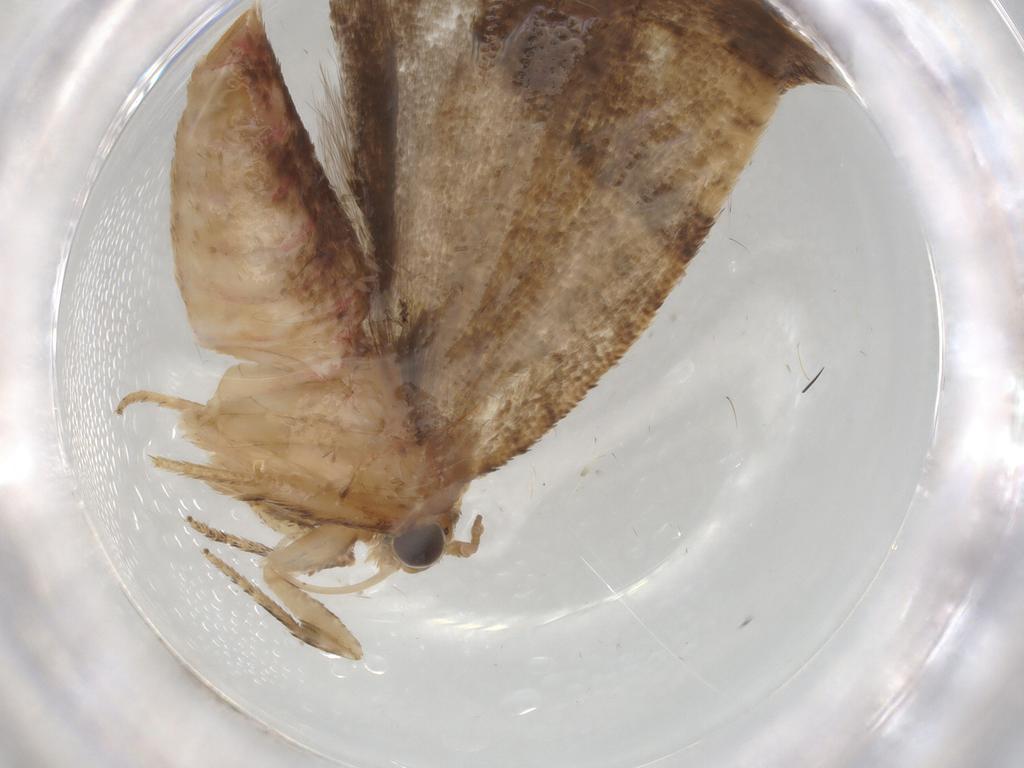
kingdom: Animalia
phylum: Arthropoda
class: Insecta
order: Lepidoptera
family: Tortricidae
